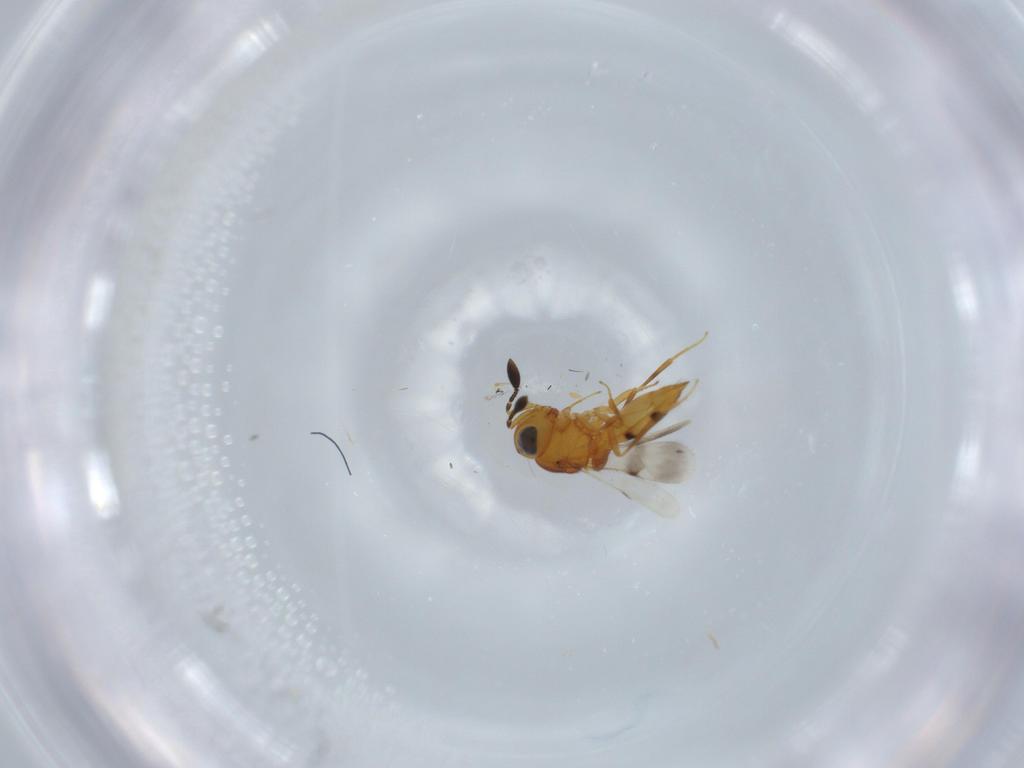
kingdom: Animalia
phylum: Arthropoda
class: Insecta
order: Hymenoptera
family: Scelionidae
